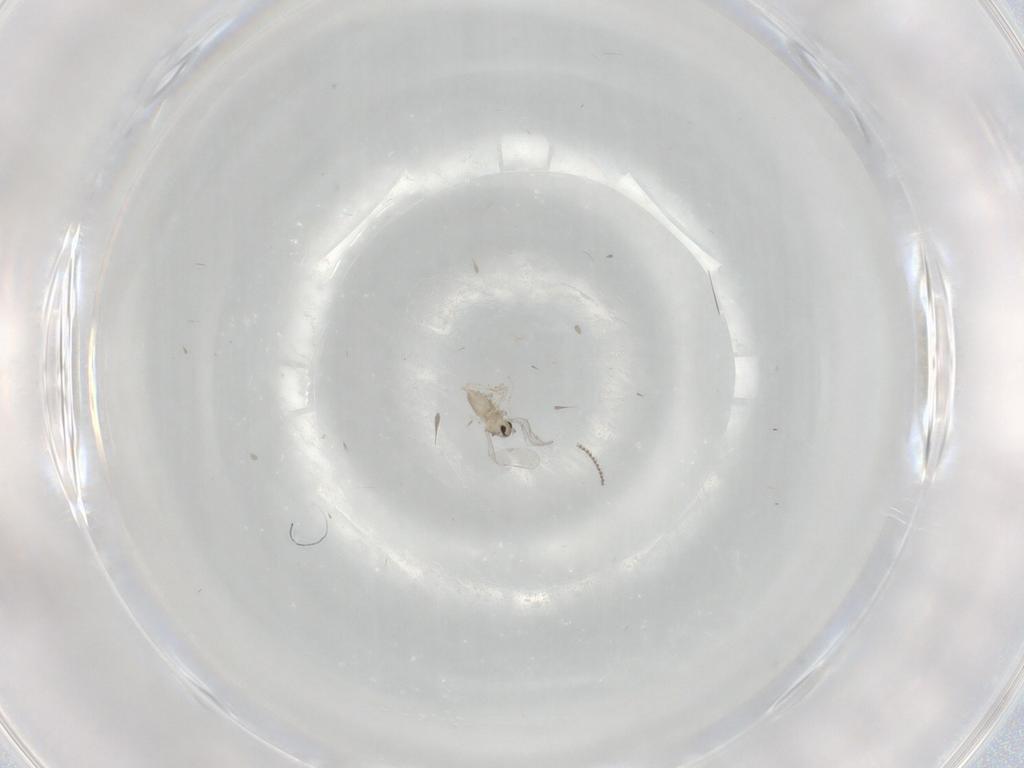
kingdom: Animalia
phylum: Arthropoda
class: Insecta
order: Diptera
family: Cecidomyiidae
